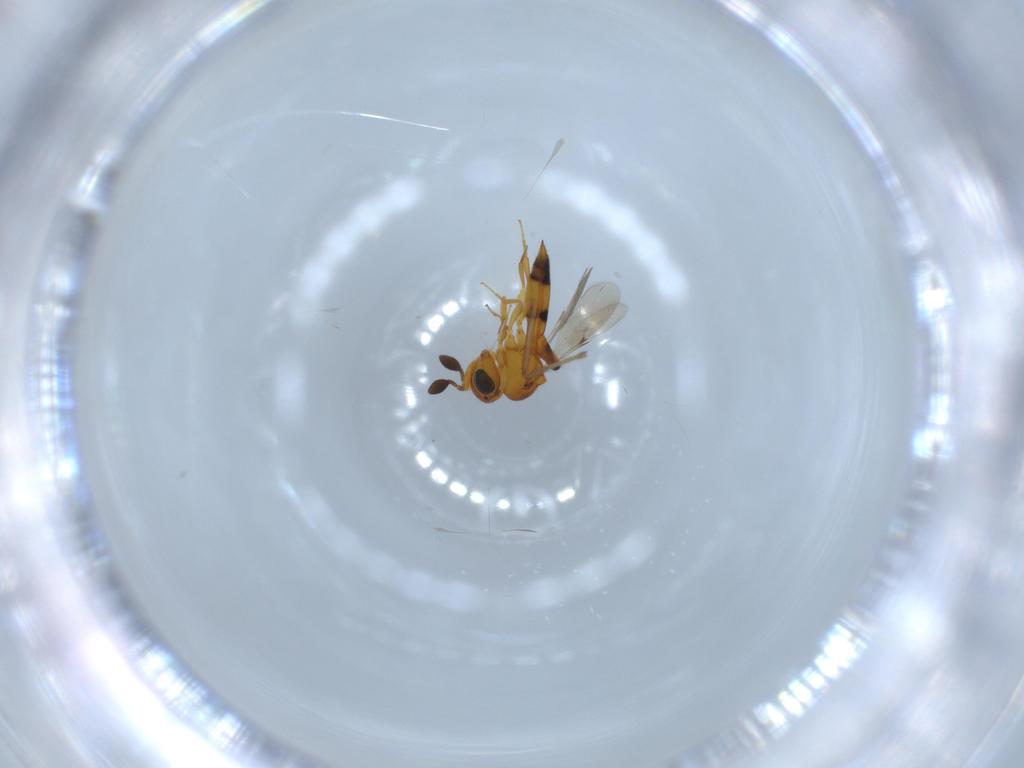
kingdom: Animalia
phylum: Arthropoda
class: Insecta
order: Hymenoptera
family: Scelionidae
